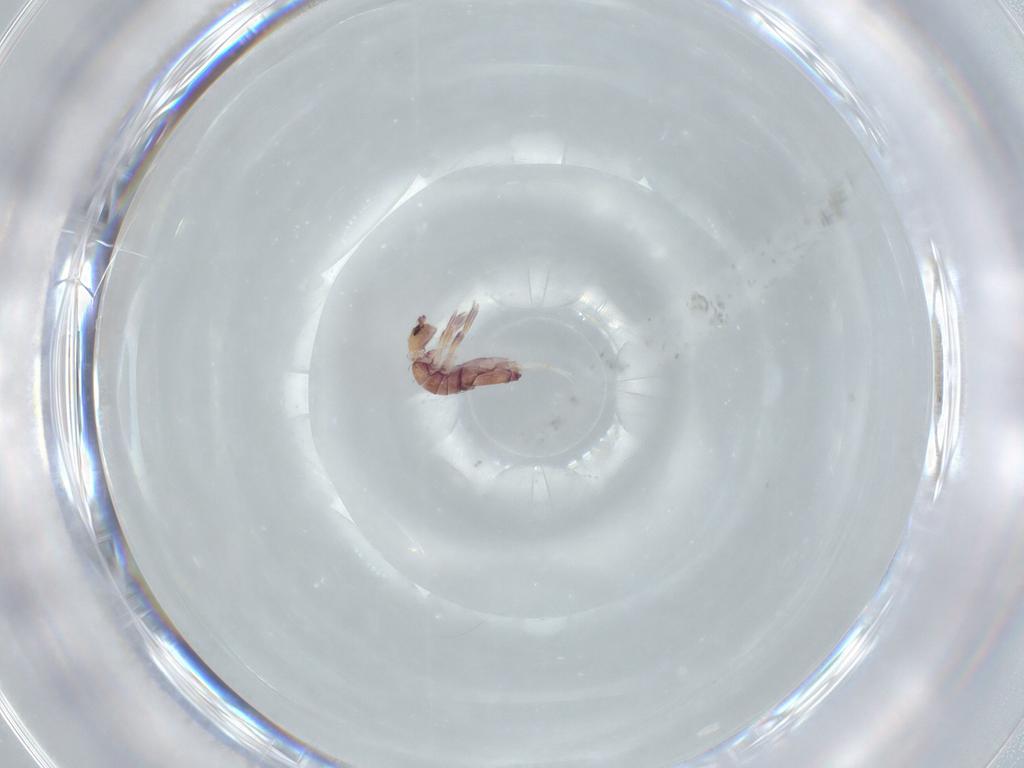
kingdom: Animalia
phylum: Arthropoda
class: Collembola
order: Entomobryomorpha
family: Entomobryidae
